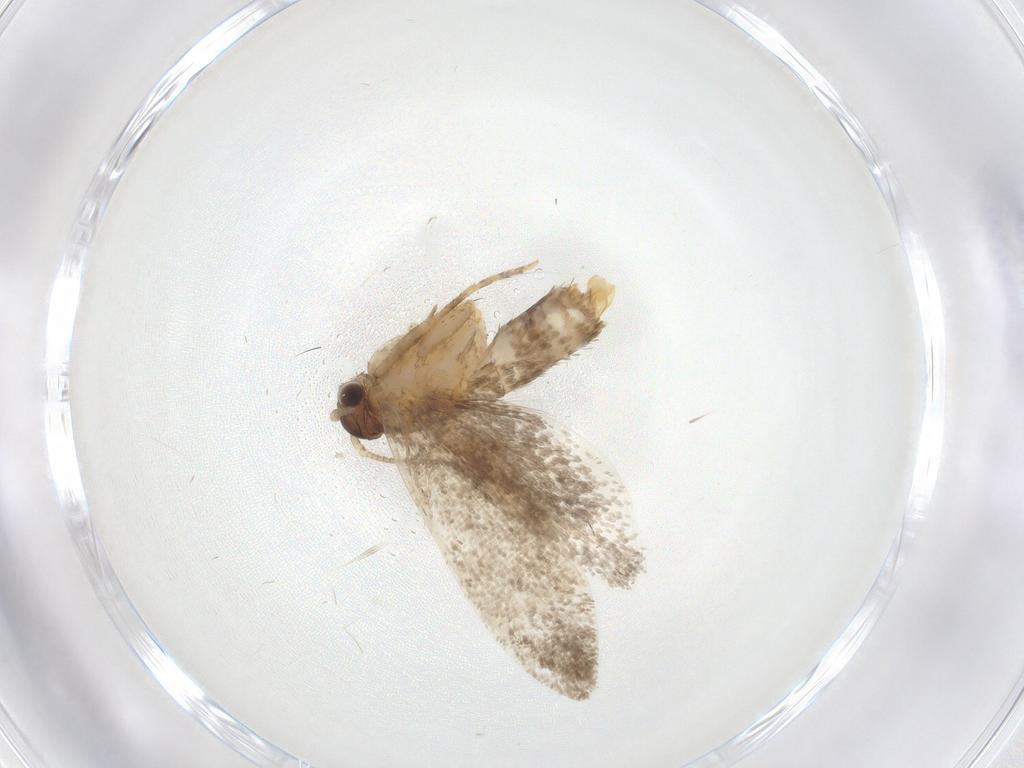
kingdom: Animalia
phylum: Arthropoda
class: Insecta
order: Lepidoptera
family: Dryadaulidae
